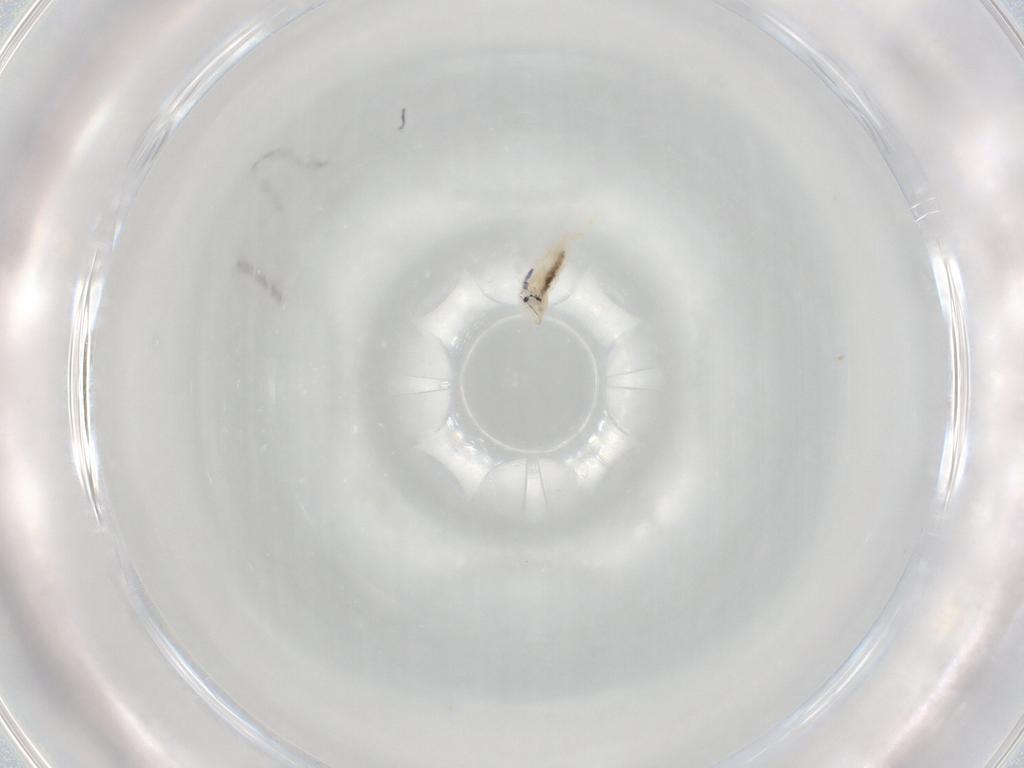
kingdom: Animalia
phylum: Arthropoda
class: Collembola
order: Entomobryomorpha
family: Entomobryidae
